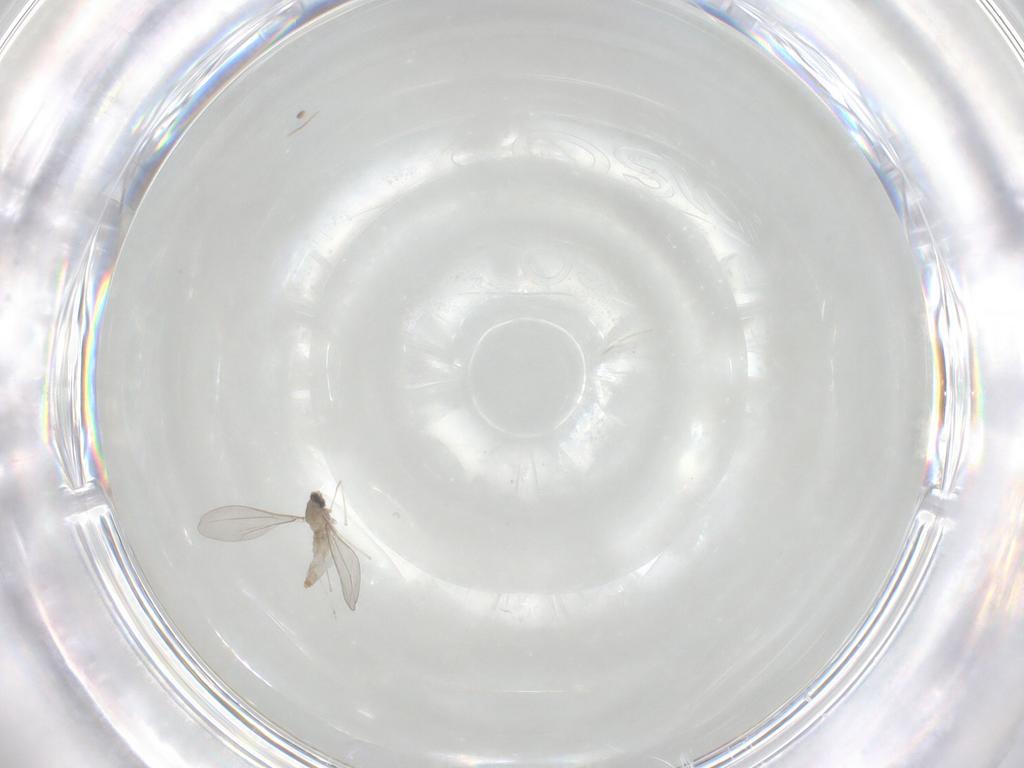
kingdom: Animalia
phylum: Arthropoda
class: Insecta
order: Diptera
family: Cecidomyiidae
